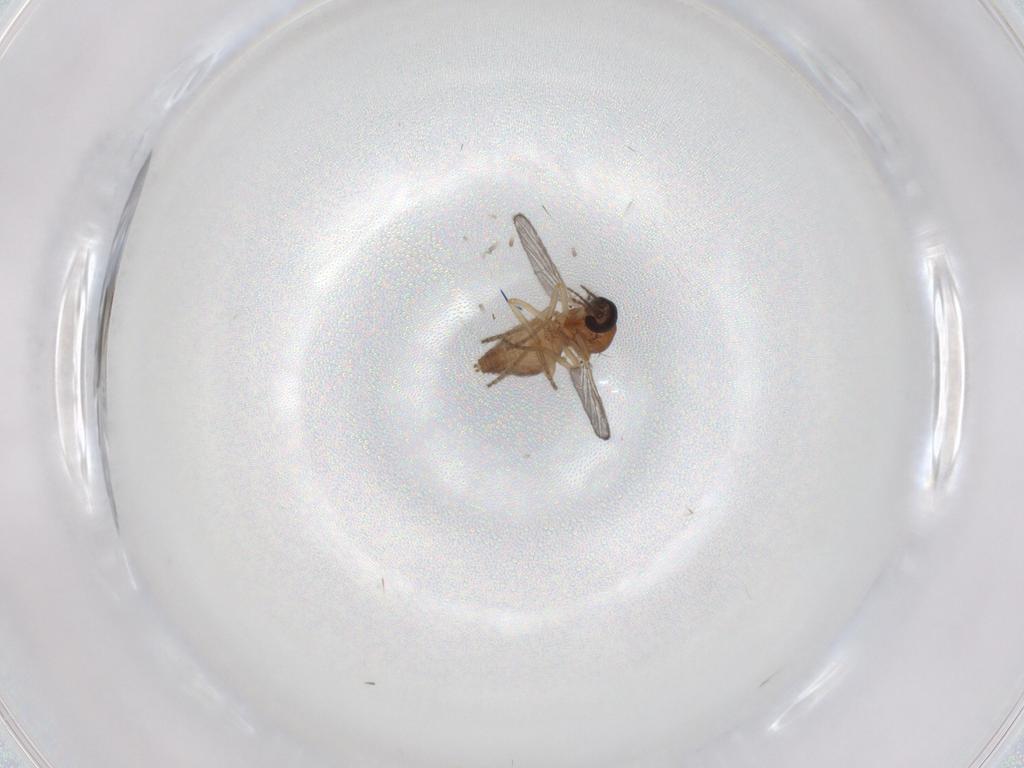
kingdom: Animalia
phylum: Arthropoda
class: Insecta
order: Diptera
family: Ceratopogonidae
